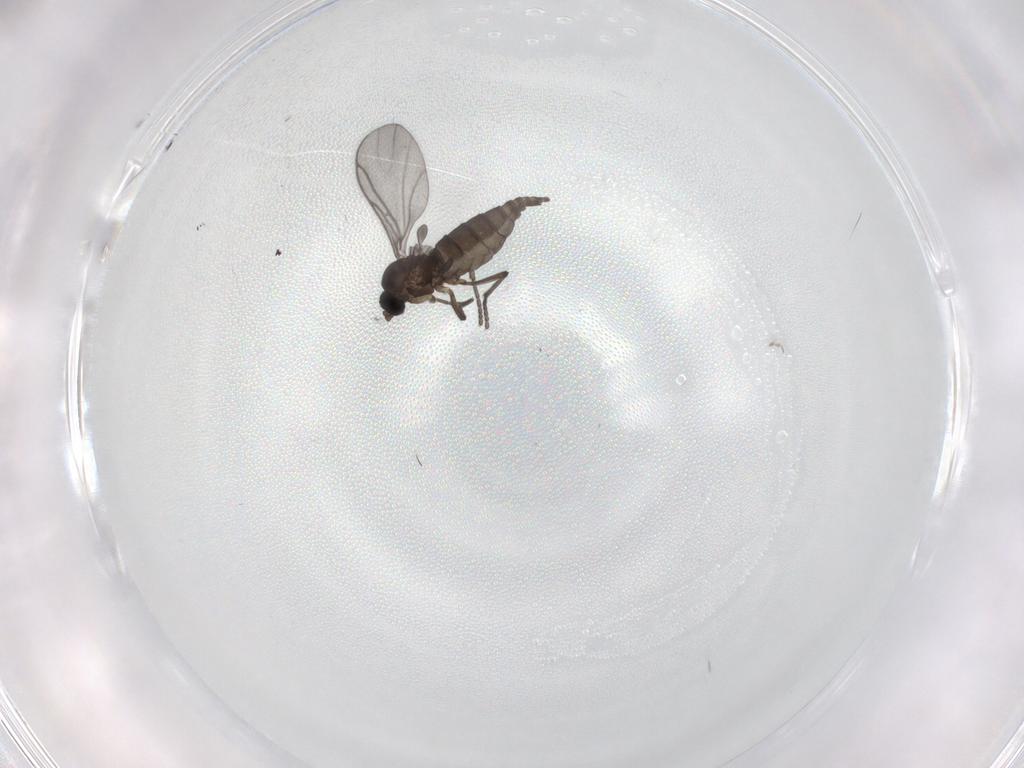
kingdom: Animalia
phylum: Arthropoda
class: Insecta
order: Diptera
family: Sciaridae
